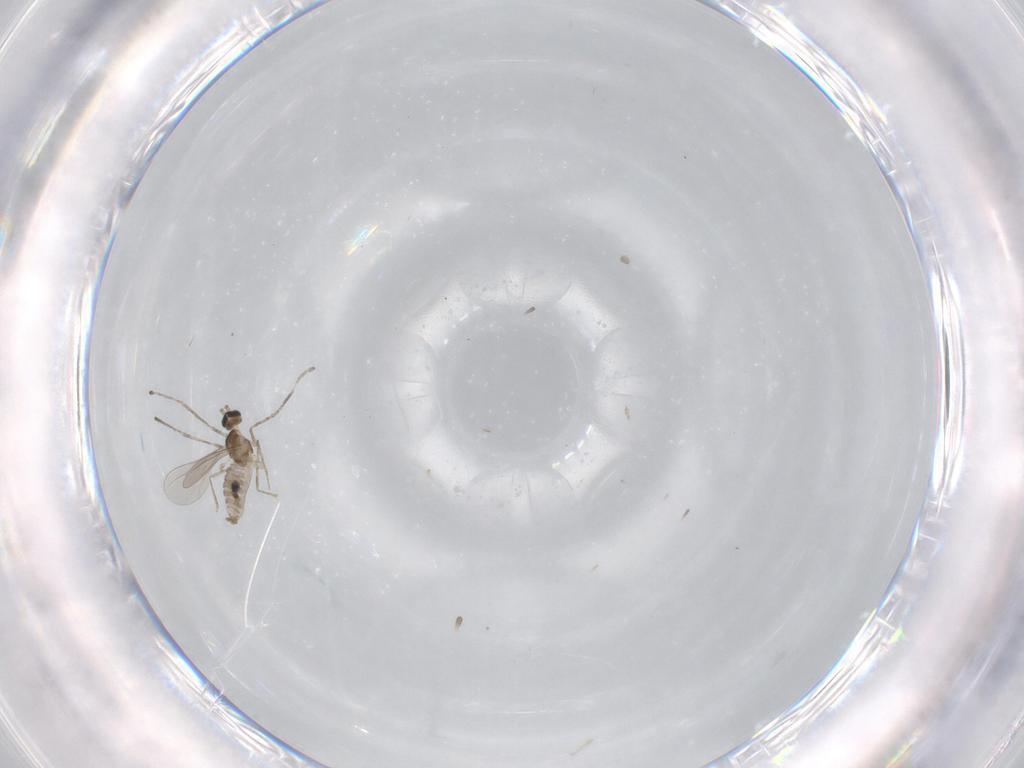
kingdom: Animalia
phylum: Arthropoda
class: Insecta
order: Diptera
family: Cecidomyiidae
